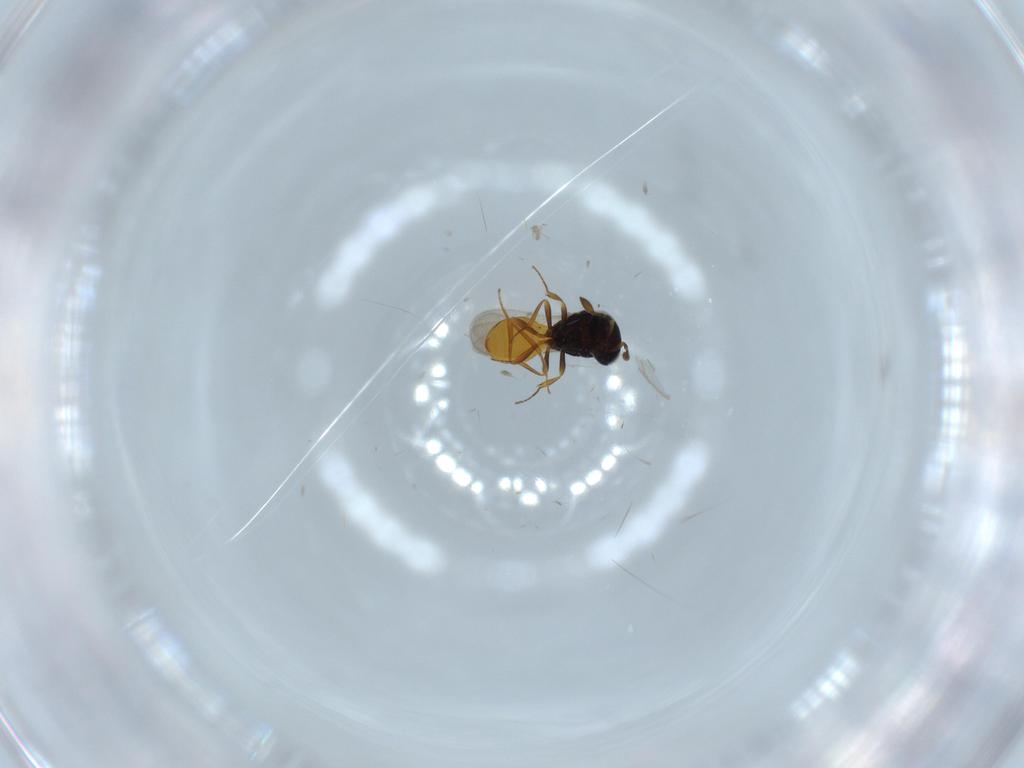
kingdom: Animalia
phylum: Arthropoda
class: Insecta
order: Hymenoptera
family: Scelionidae
